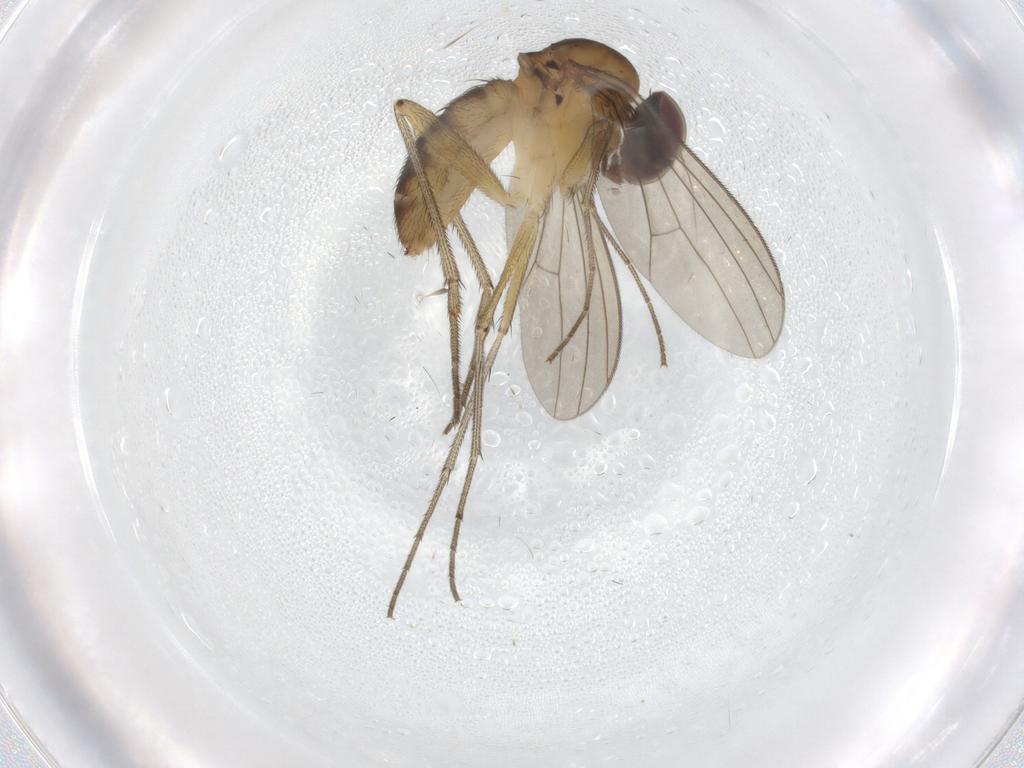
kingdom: Animalia
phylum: Arthropoda
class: Insecta
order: Diptera
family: Dolichopodidae
